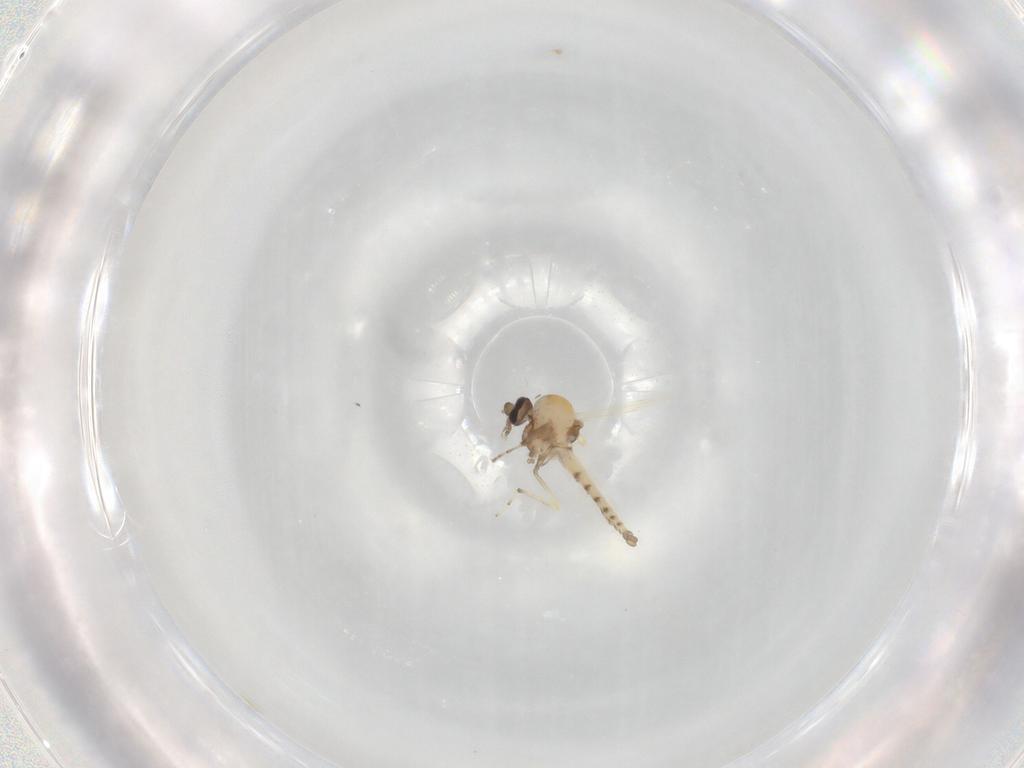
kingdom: Animalia
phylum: Arthropoda
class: Insecta
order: Diptera
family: Ceratopogonidae
